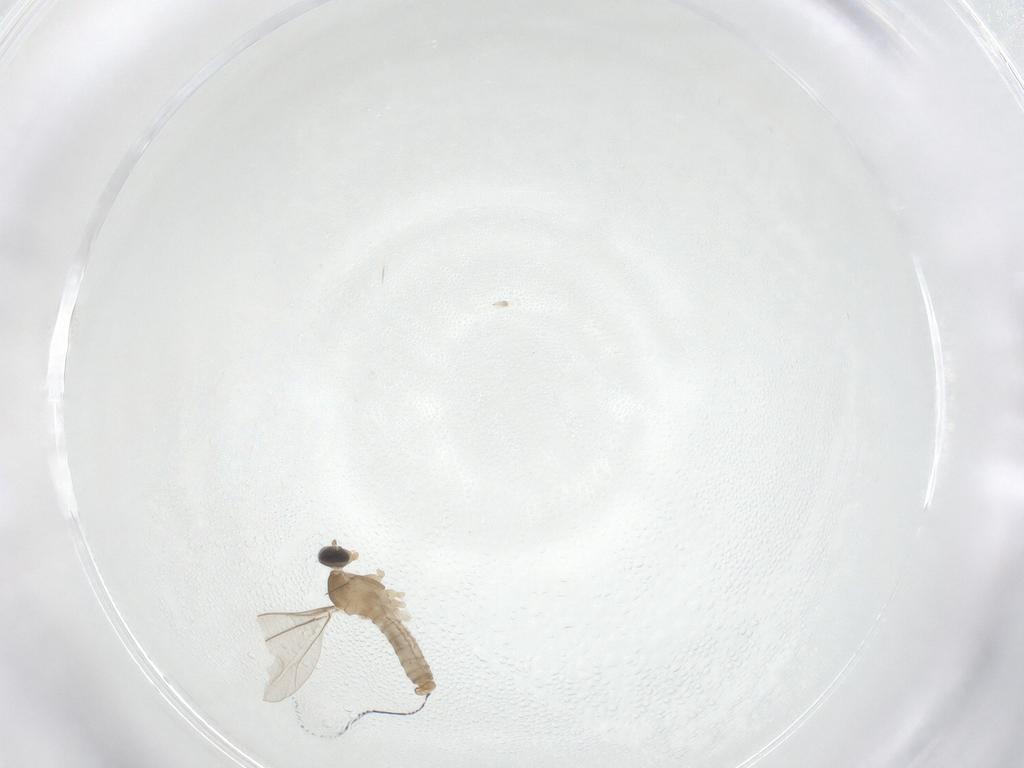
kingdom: Animalia
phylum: Arthropoda
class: Insecta
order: Diptera
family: Cecidomyiidae
